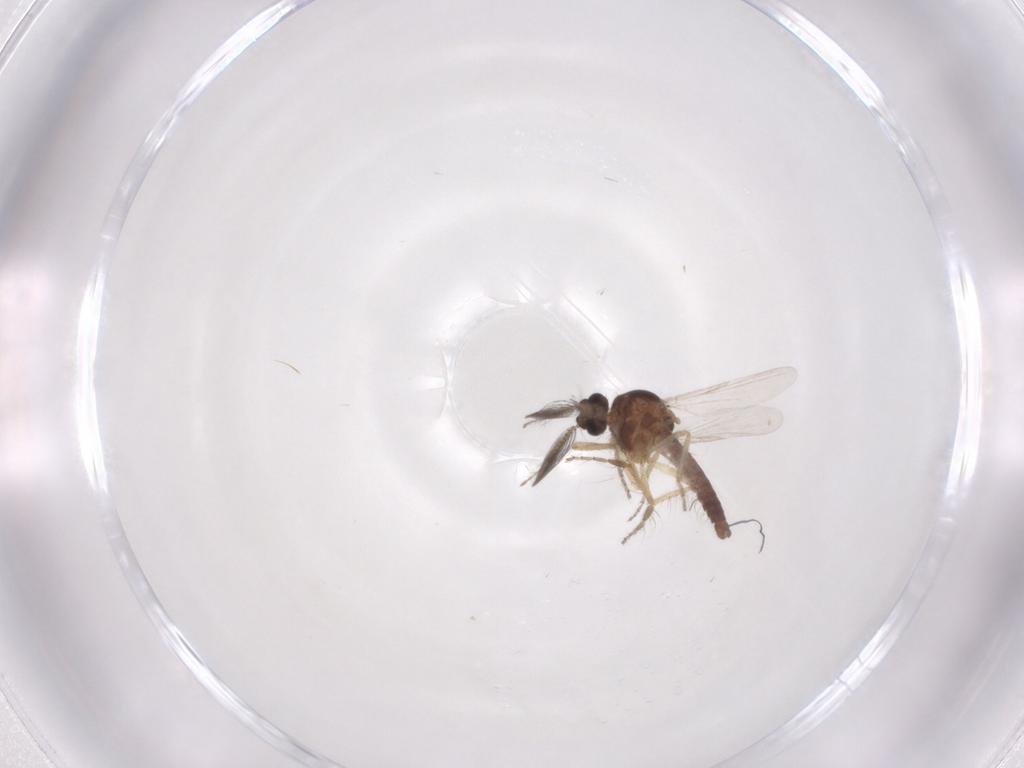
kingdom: Animalia
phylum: Arthropoda
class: Insecta
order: Diptera
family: Ceratopogonidae
